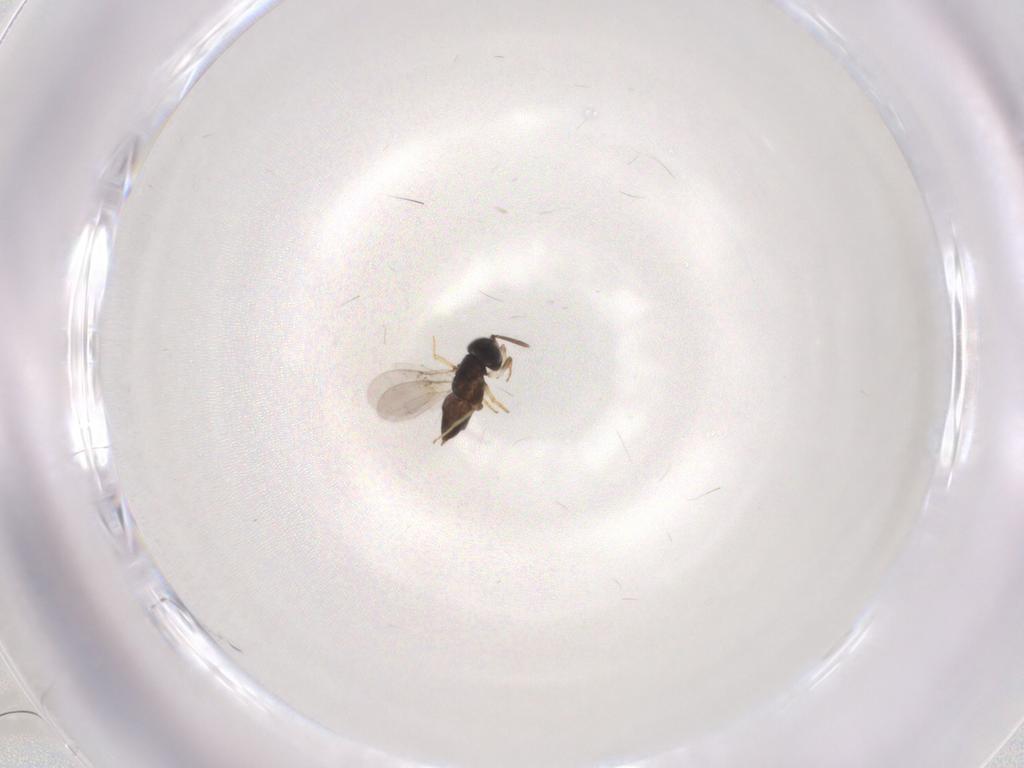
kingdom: Animalia
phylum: Arthropoda
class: Insecta
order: Hymenoptera
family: Encyrtidae
